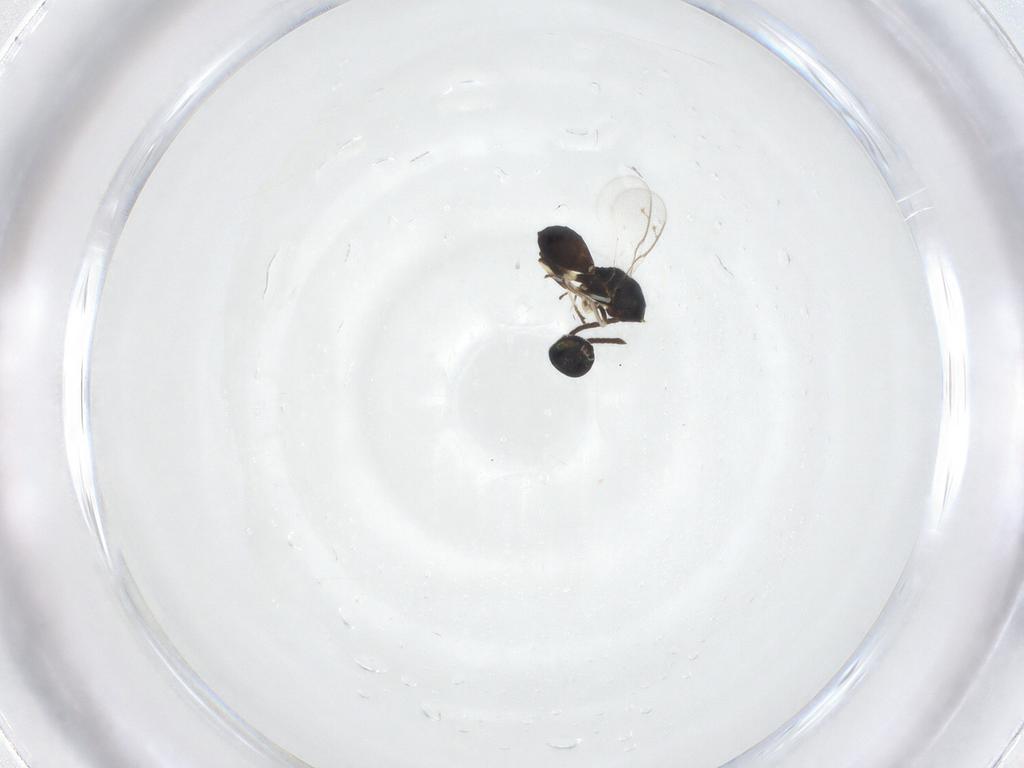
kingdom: Animalia
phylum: Arthropoda
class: Insecta
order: Hymenoptera
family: Eupelmidae
